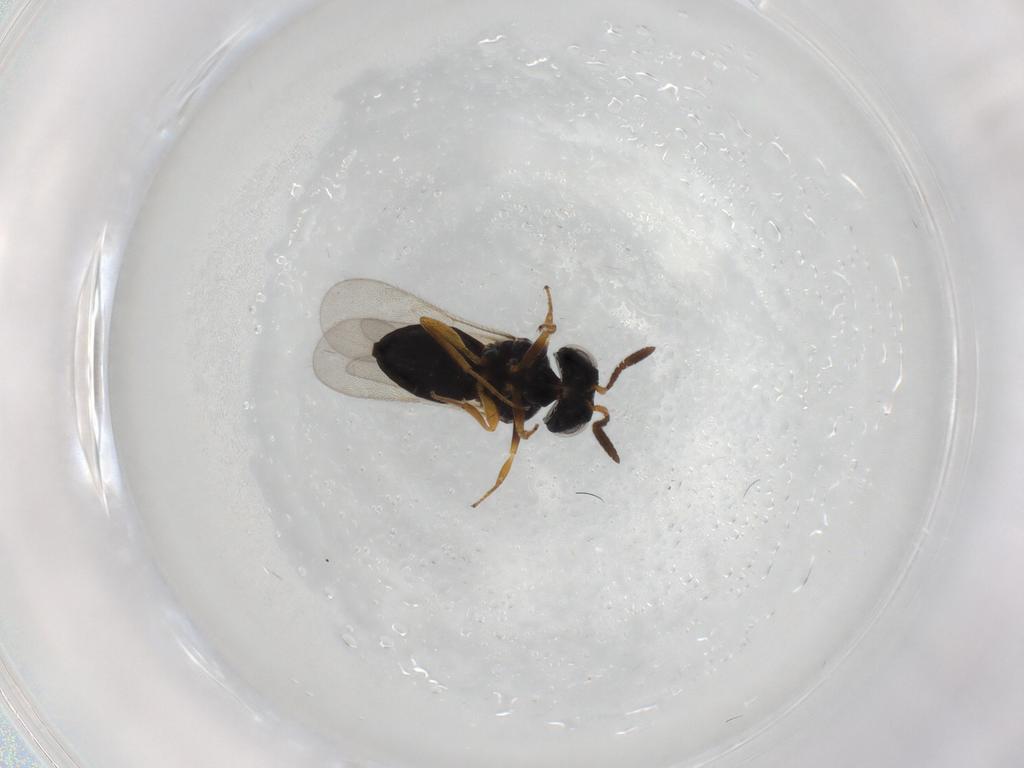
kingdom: Animalia
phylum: Arthropoda
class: Insecta
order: Hymenoptera
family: Scelionidae
